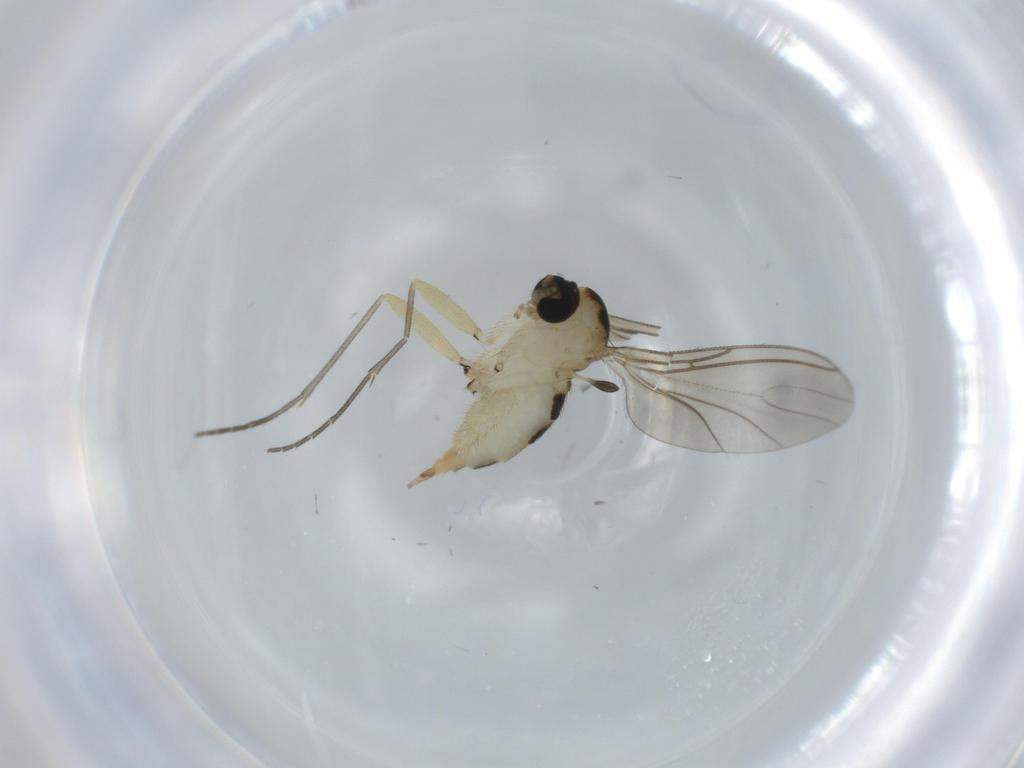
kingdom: Animalia
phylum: Arthropoda
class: Insecta
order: Diptera
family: Sciaridae
